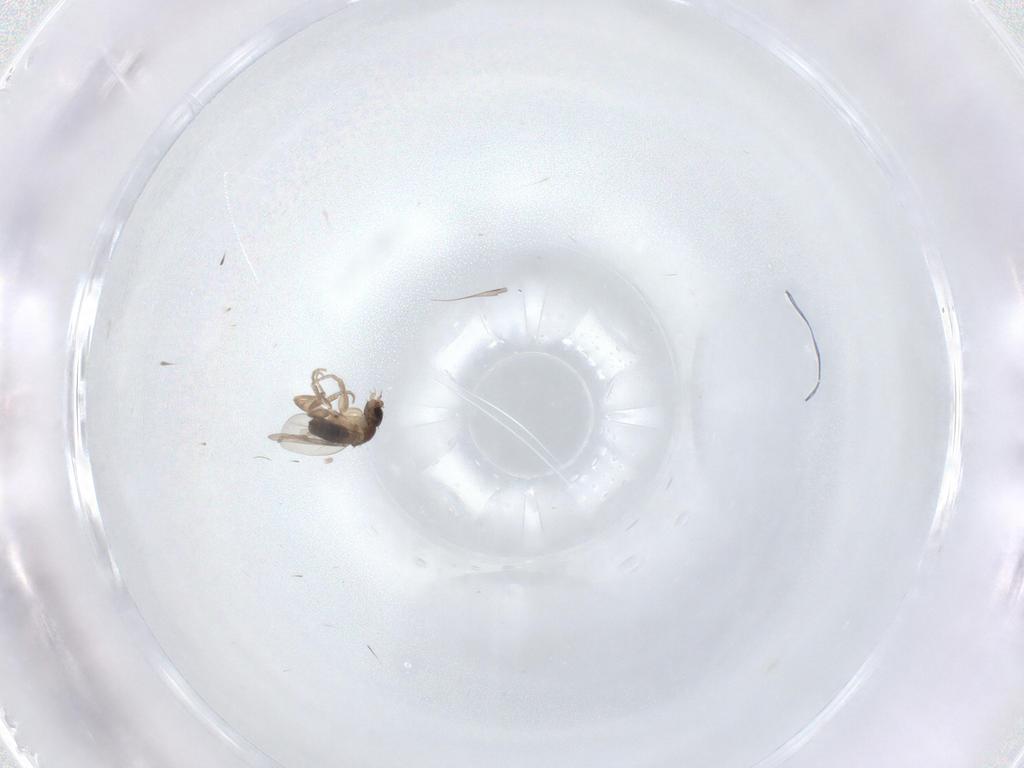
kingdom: Animalia
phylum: Arthropoda
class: Insecta
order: Diptera
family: Phoridae
